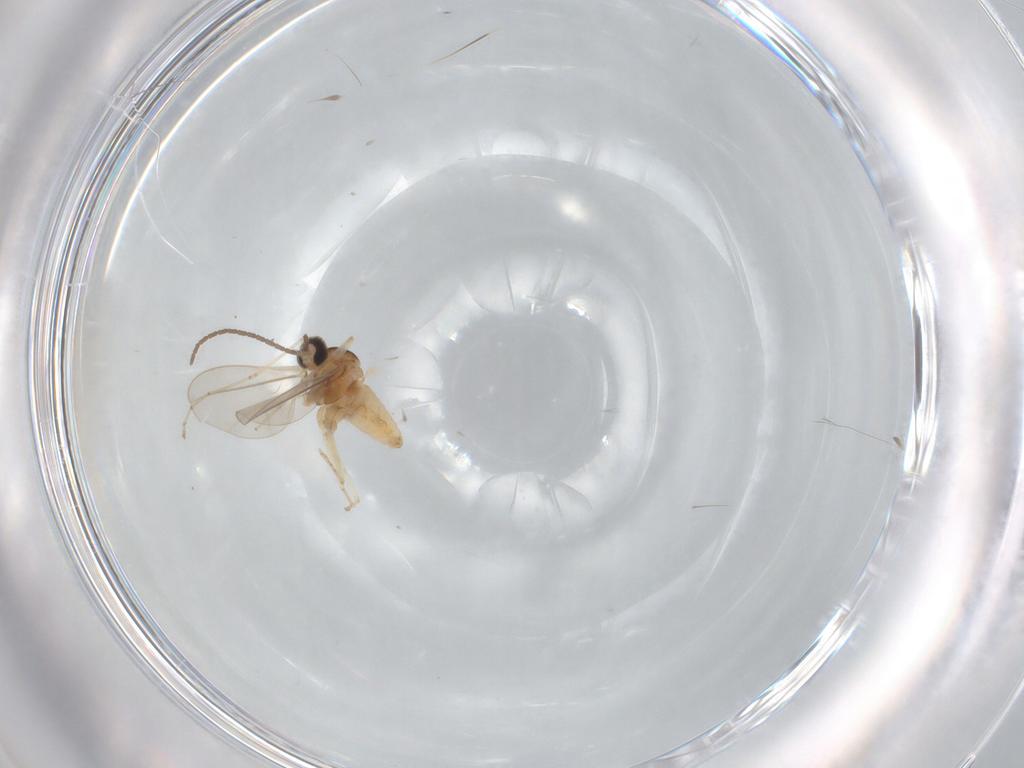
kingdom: Animalia
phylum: Arthropoda
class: Insecta
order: Diptera
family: Cecidomyiidae
